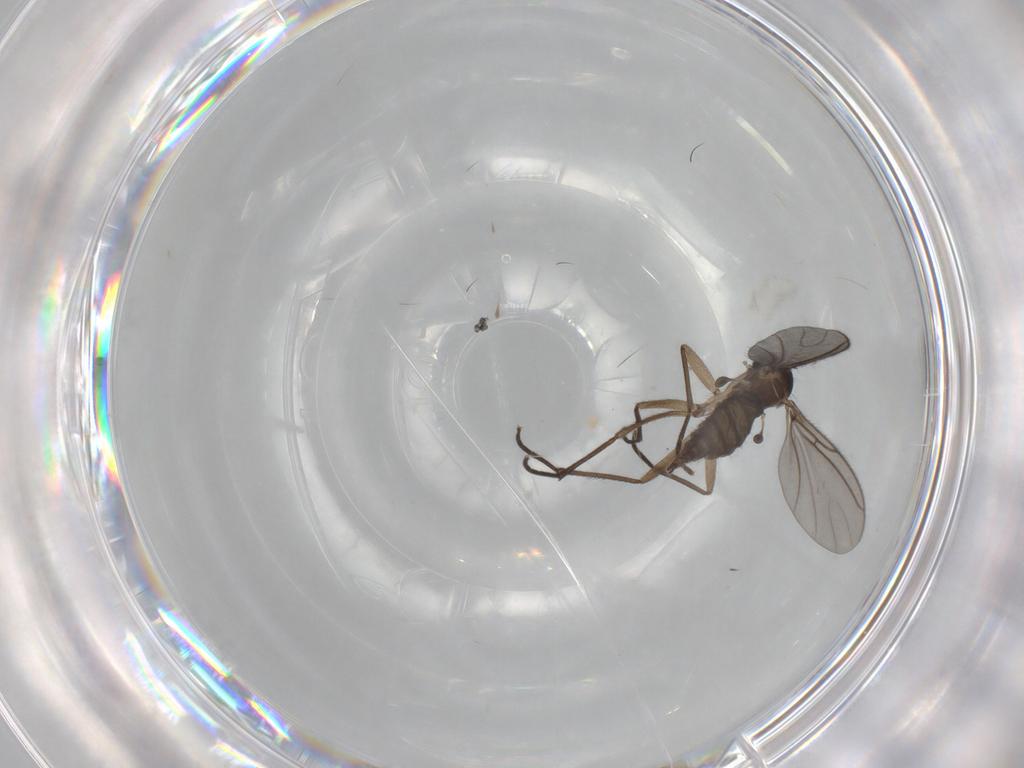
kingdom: Animalia
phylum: Arthropoda
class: Insecta
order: Diptera
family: Sciaridae
